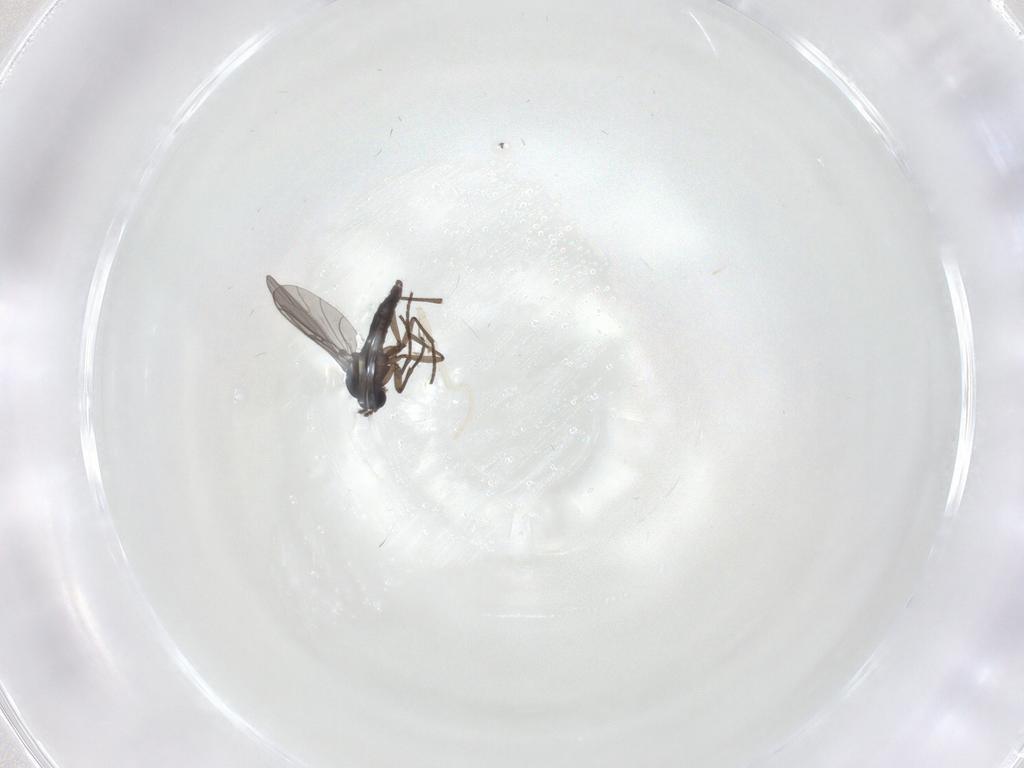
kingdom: Animalia
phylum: Arthropoda
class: Insecta
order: Diptera
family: Sciaridae
